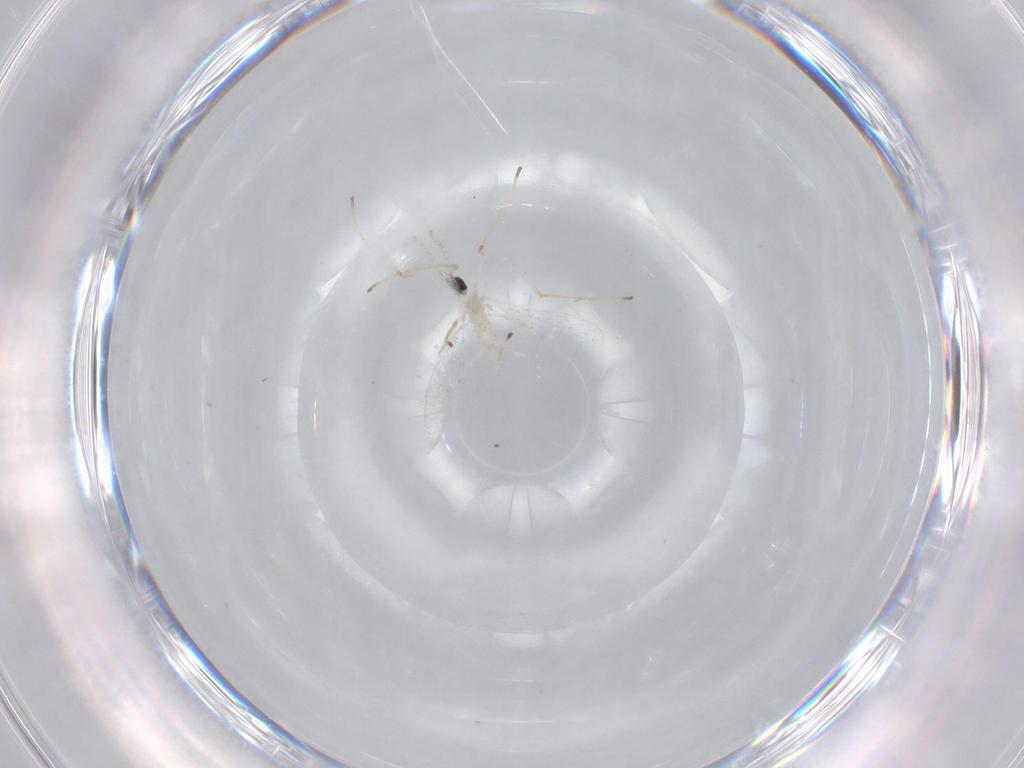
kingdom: Animalia
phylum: Arthropoda
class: Insecta
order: Diptera
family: Cecidomyiidae
